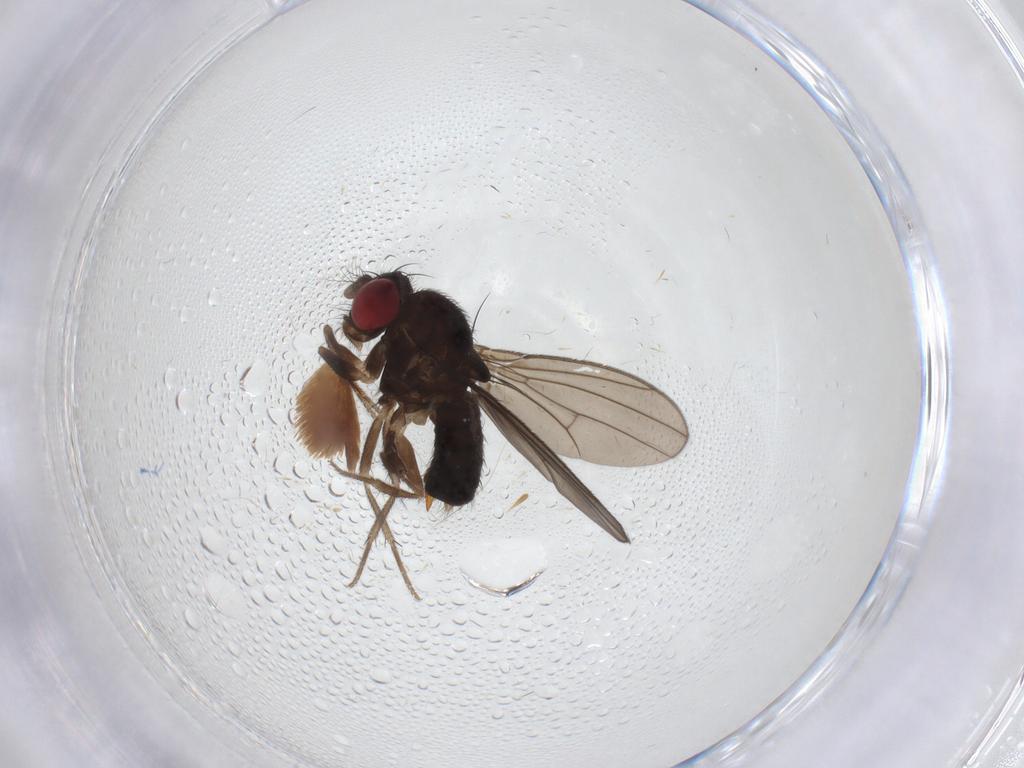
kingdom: Animalia
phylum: Arthropoda
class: Insecta
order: Diptera
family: Drosophilidae
